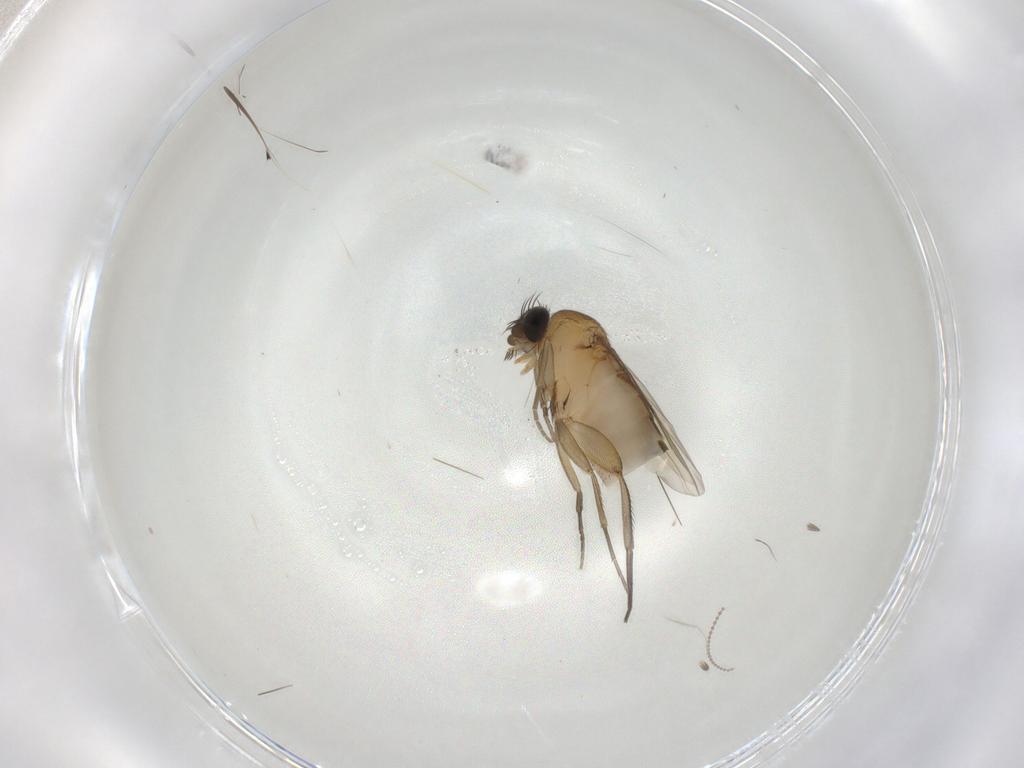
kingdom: Animalia
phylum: Arthropoda
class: Insecta
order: Diptera
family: Phoridae
